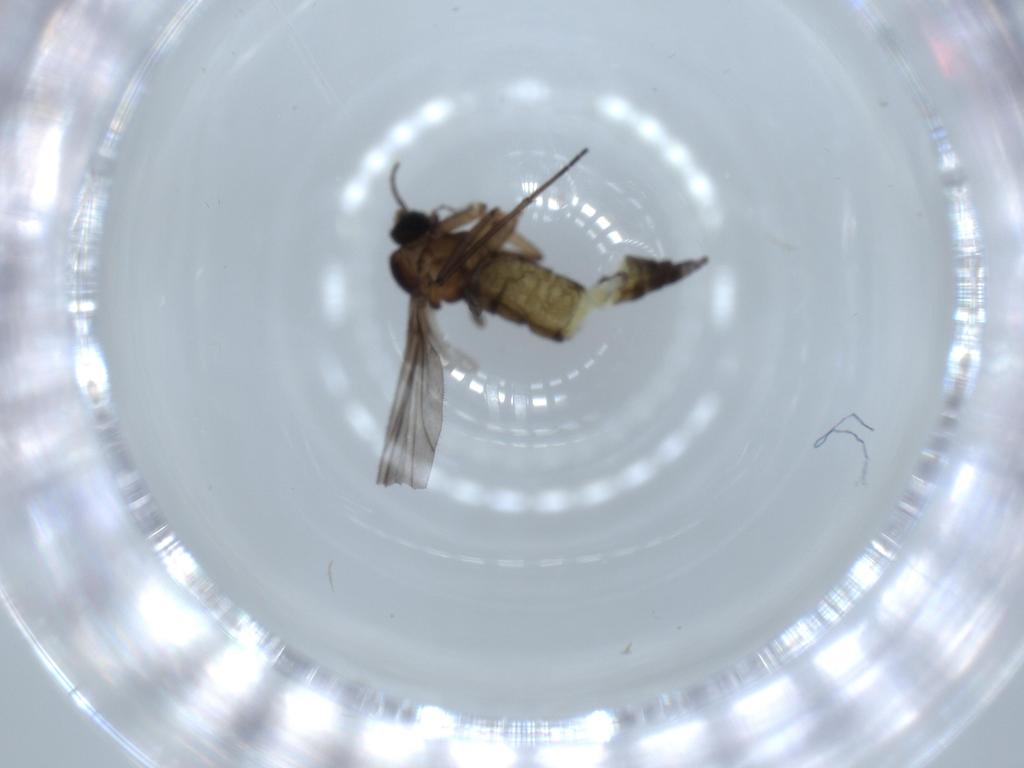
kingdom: Animalia
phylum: Arthropoda
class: Insecta
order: Diptera
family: Sciaridae
